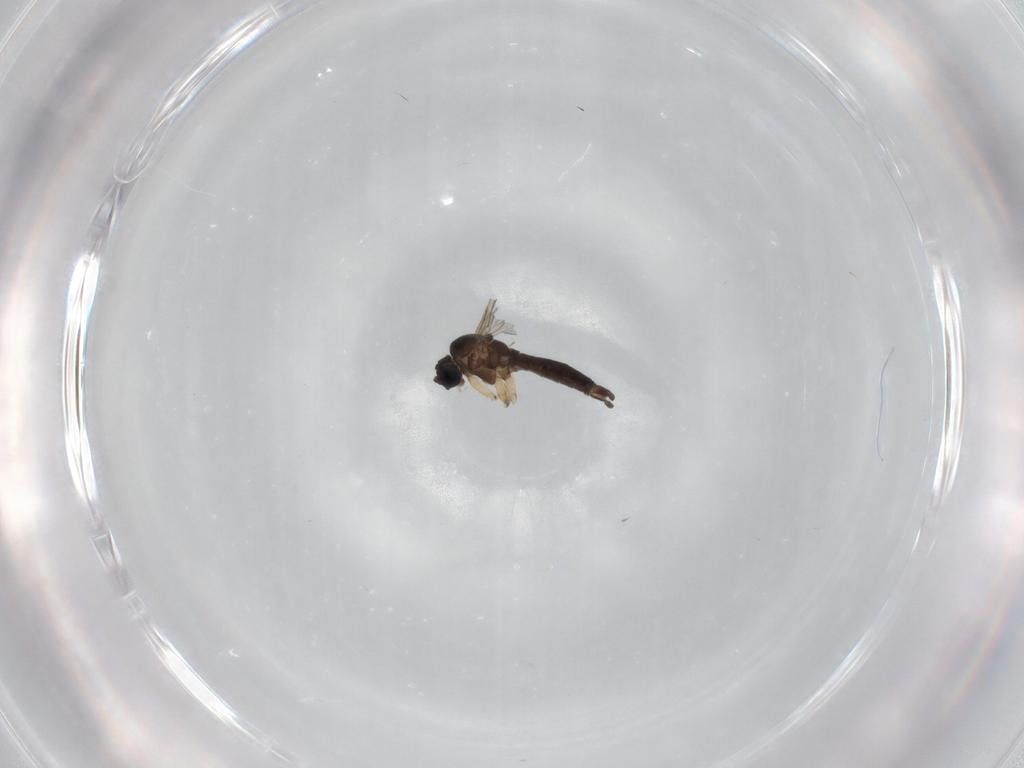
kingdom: Animalia
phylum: Arthropoda
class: Insecta
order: Diptera
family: Sciaridae
